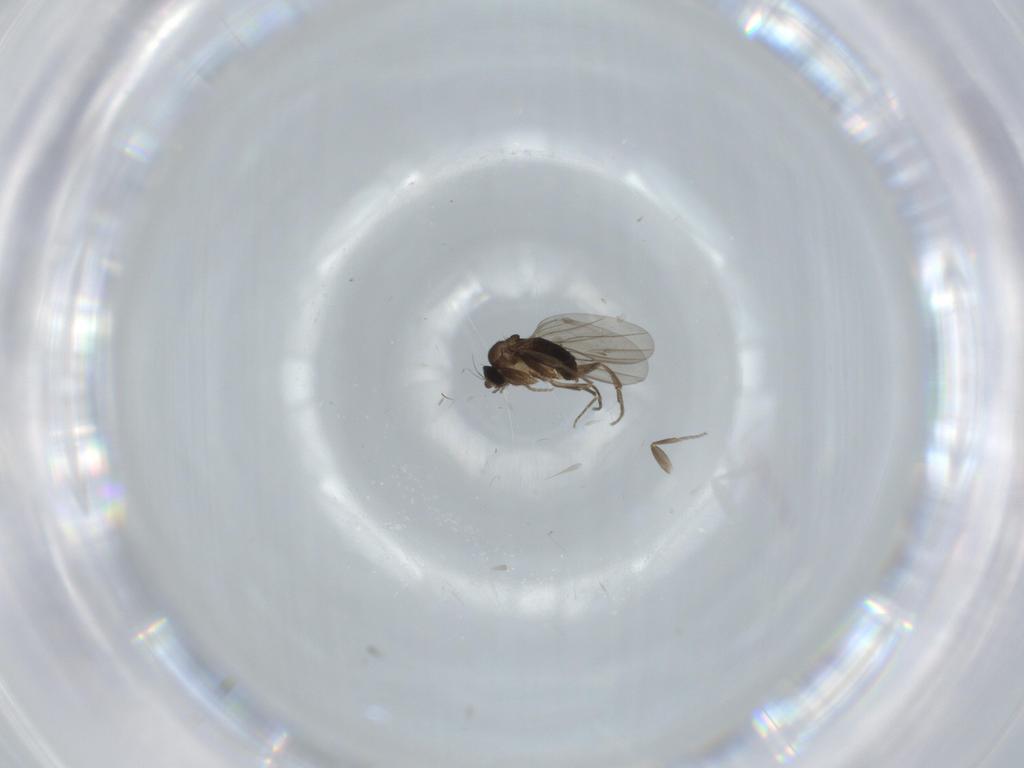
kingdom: Animalia
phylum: Arthropoda
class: Insecta
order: Diptera
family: Phoridae
